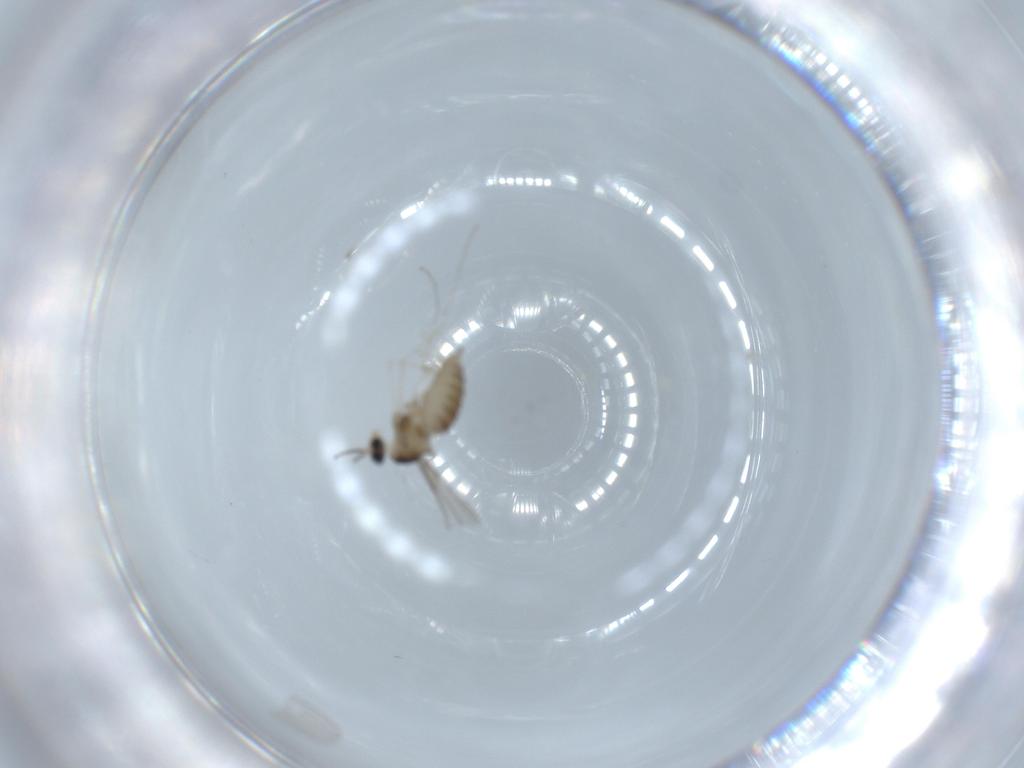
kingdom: Animalia
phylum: Arthropoda
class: Insecta
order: Diptera
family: Cecidomyiidae
